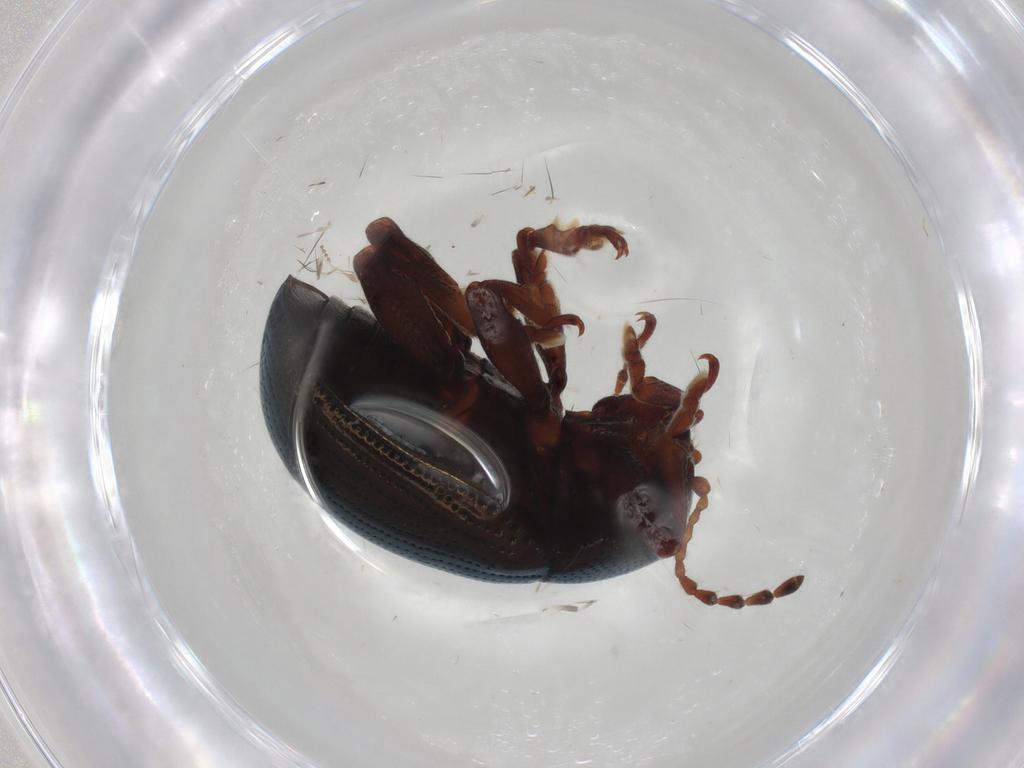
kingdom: Animalia
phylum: Arthropoda
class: Insecta
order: Coleoptera
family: Chrysomelidae
